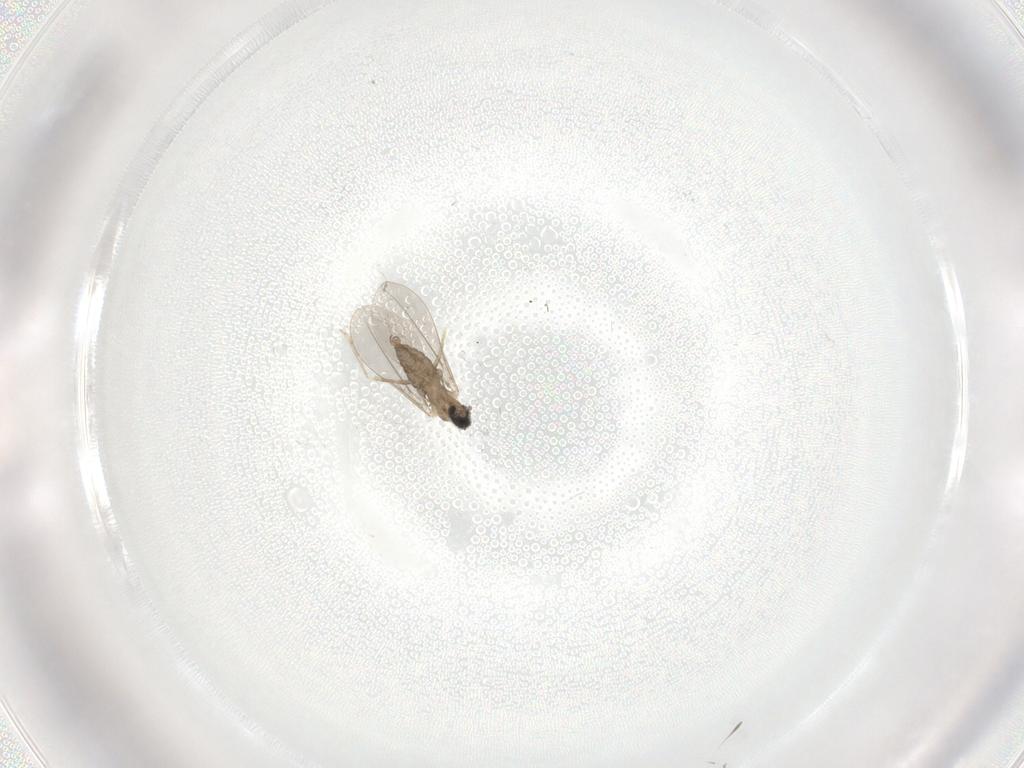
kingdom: Animalia
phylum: Arthropoda
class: Insecta
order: Diptera
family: Cecidomyiidae
